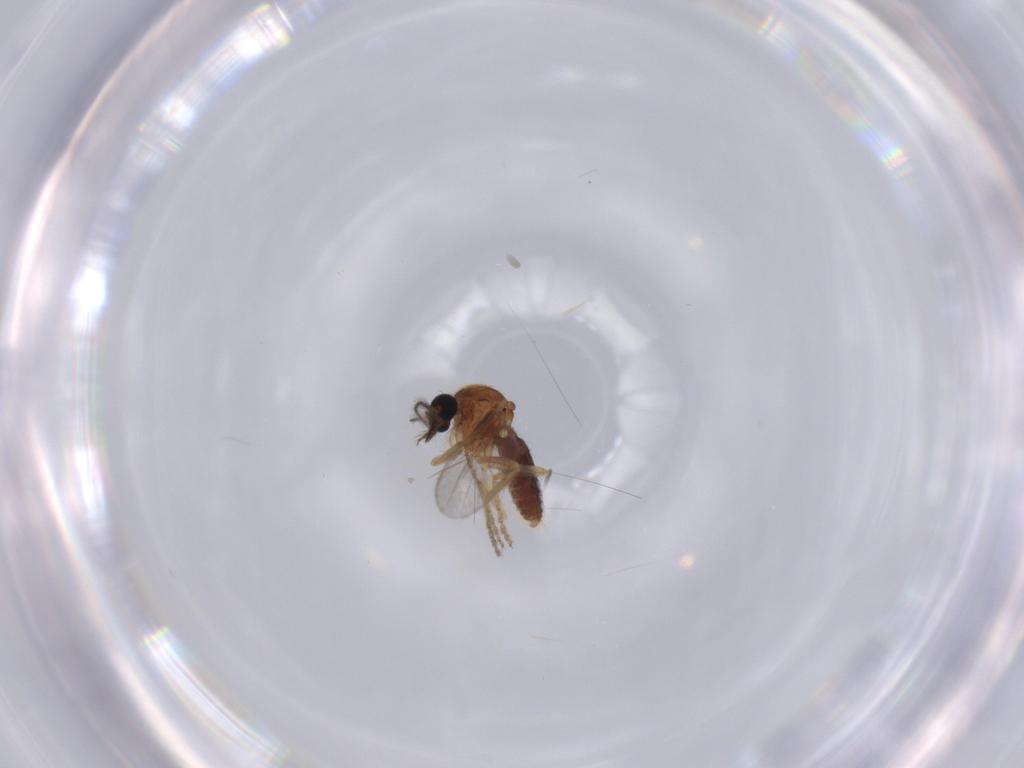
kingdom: Animalia
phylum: Arthropoda
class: Insecta
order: Diptera
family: Ceratopogonidae
